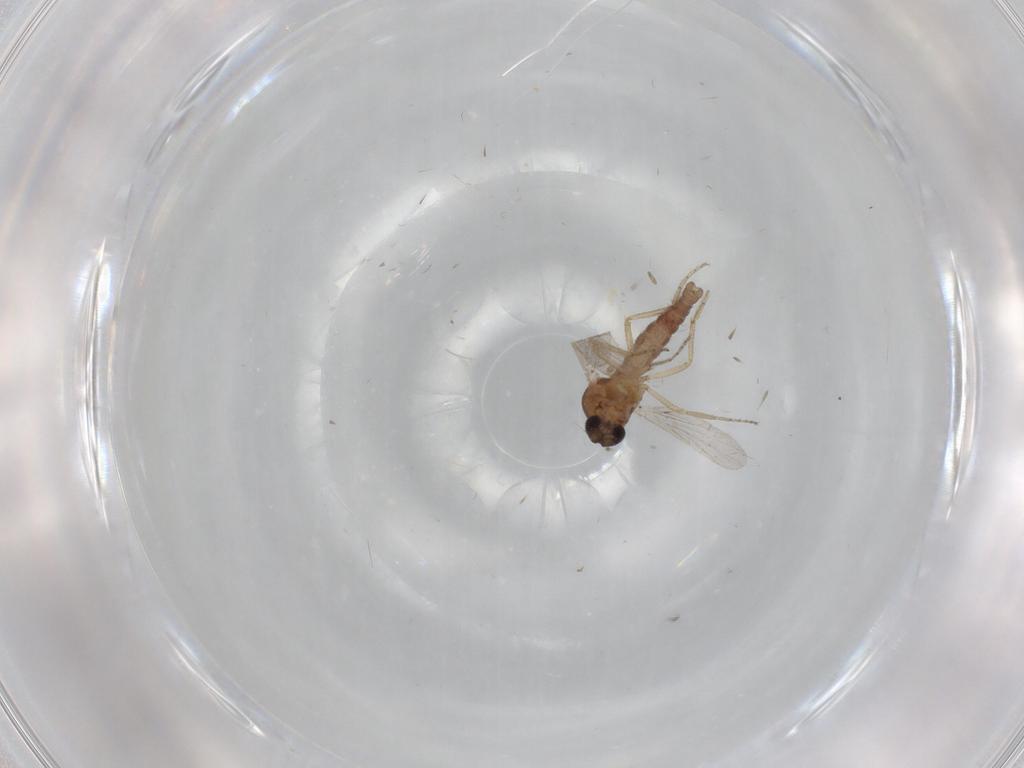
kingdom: Animalia
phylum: Arthropoda
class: Insecta
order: Diptera
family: Ceratopogonidae
